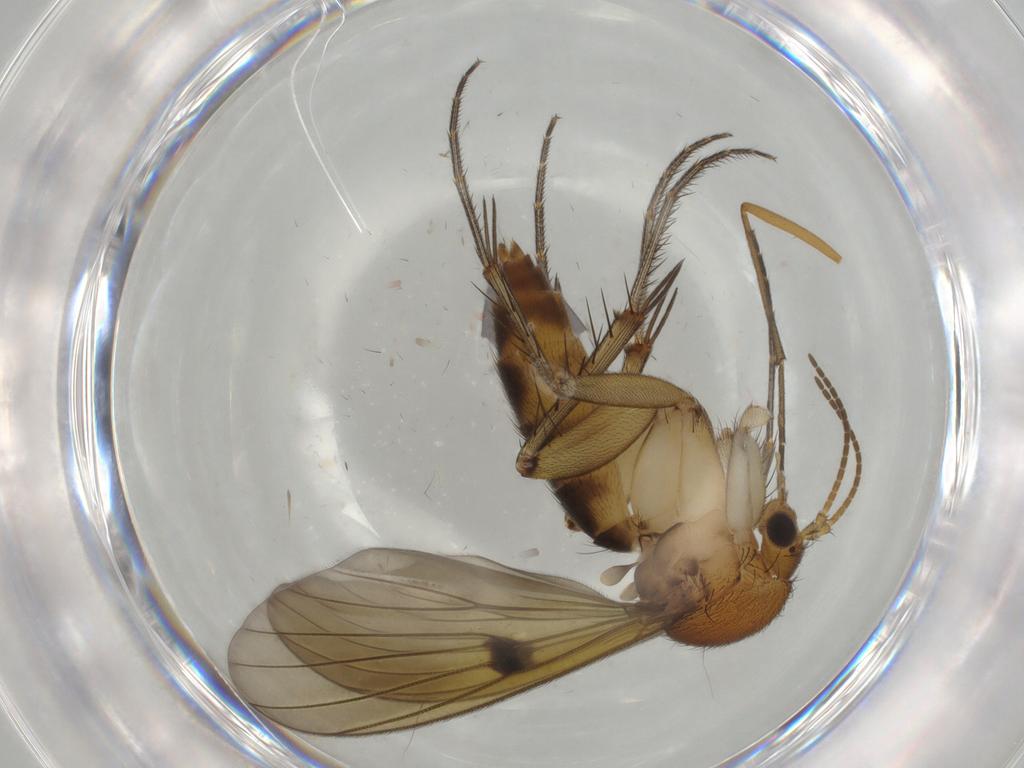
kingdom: Animalia
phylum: Arthropoda
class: Insecta
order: Diptera
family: Mycetophilidae
